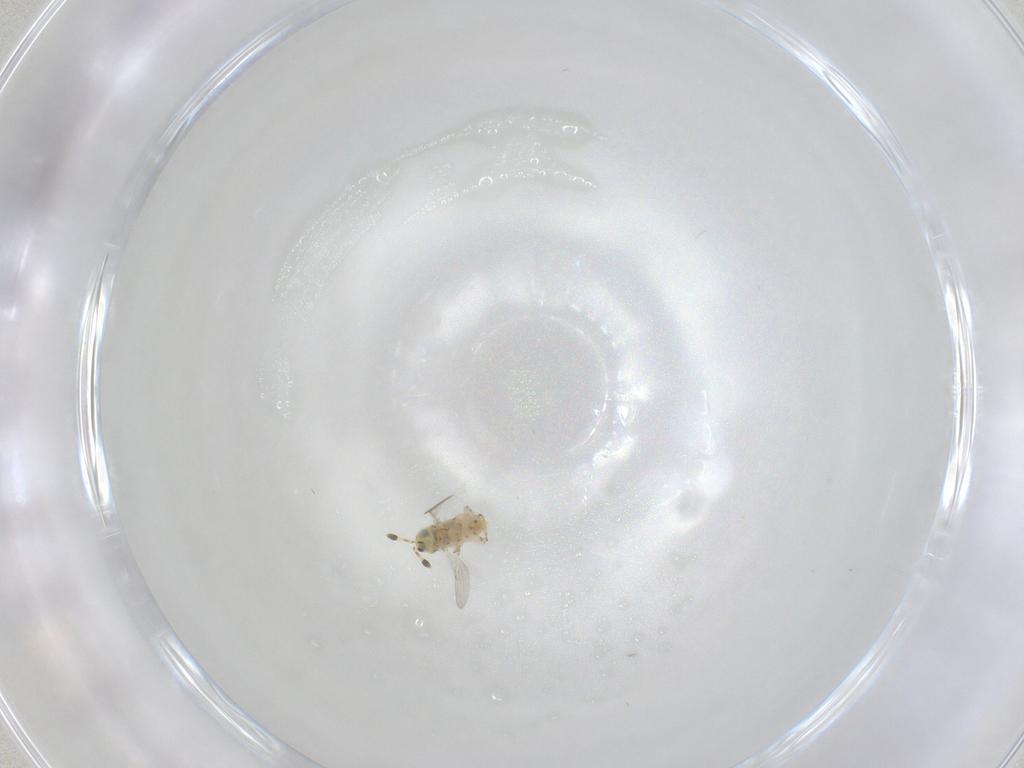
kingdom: Animalia
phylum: Arthropoda
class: Insecta
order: Hymenoptera
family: Encyrtidae
